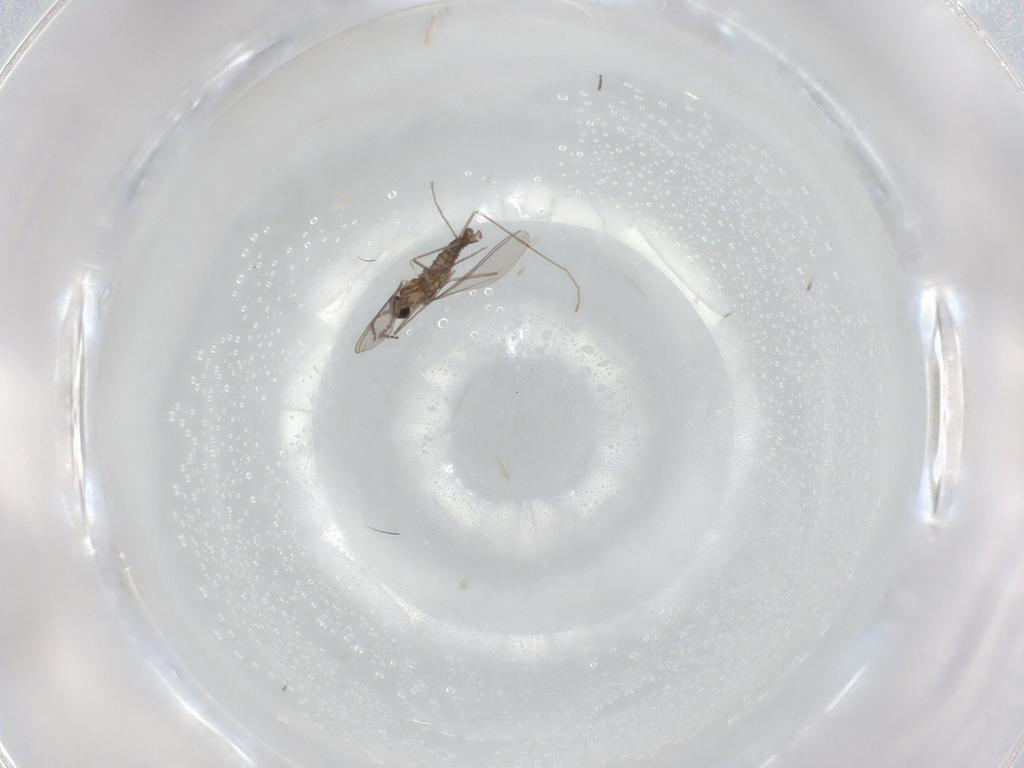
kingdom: Animalia
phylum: Arthropoda
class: Insecta
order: Diptera
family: Cecidomyiidae
